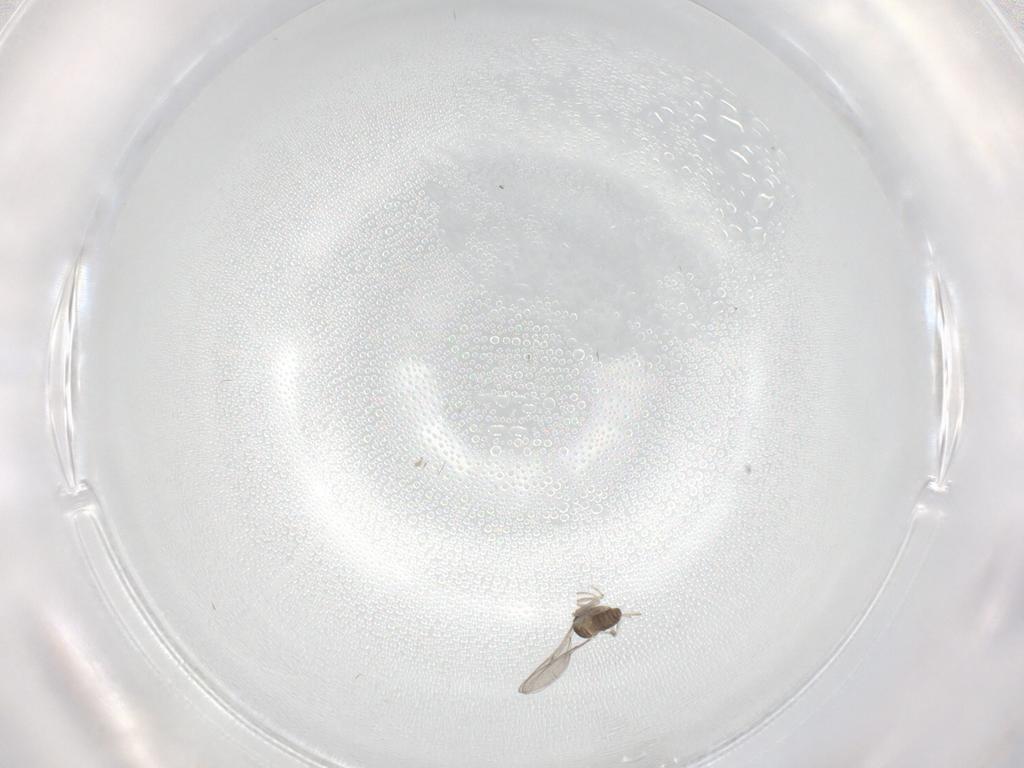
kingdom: Animalia
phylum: Arthropoda
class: Insecta
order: Diptera
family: Cecidomyiidae
